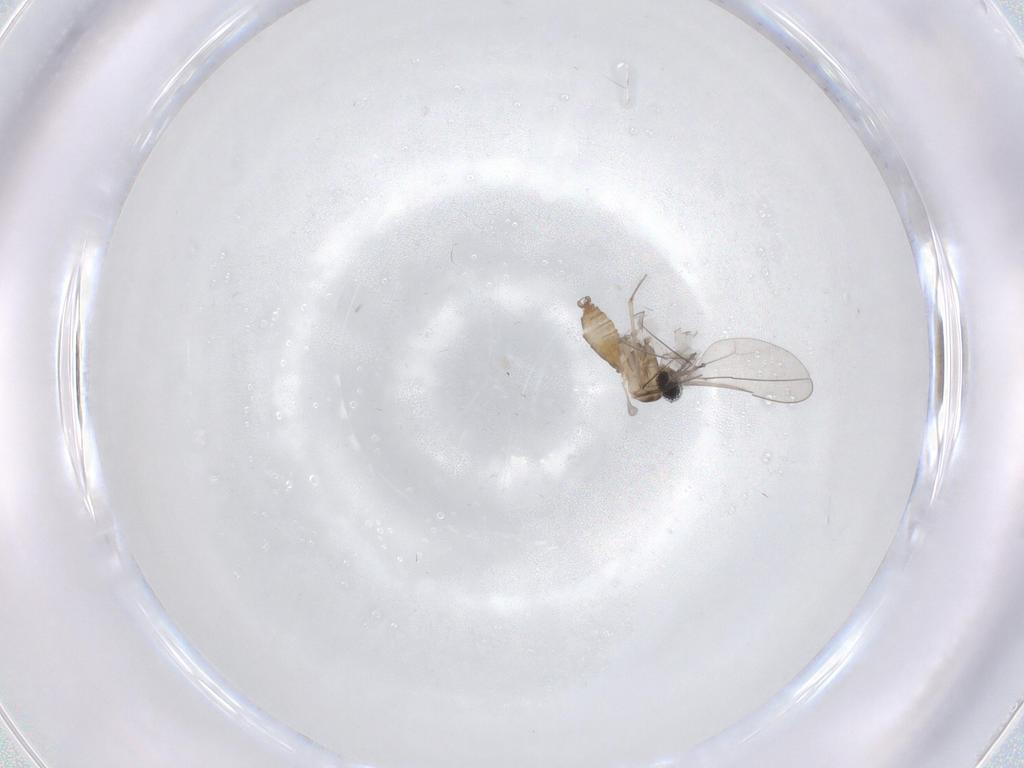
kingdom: Animalia
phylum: Arthropoda
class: Insecta
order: Diptera
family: Cecidomyiidae
